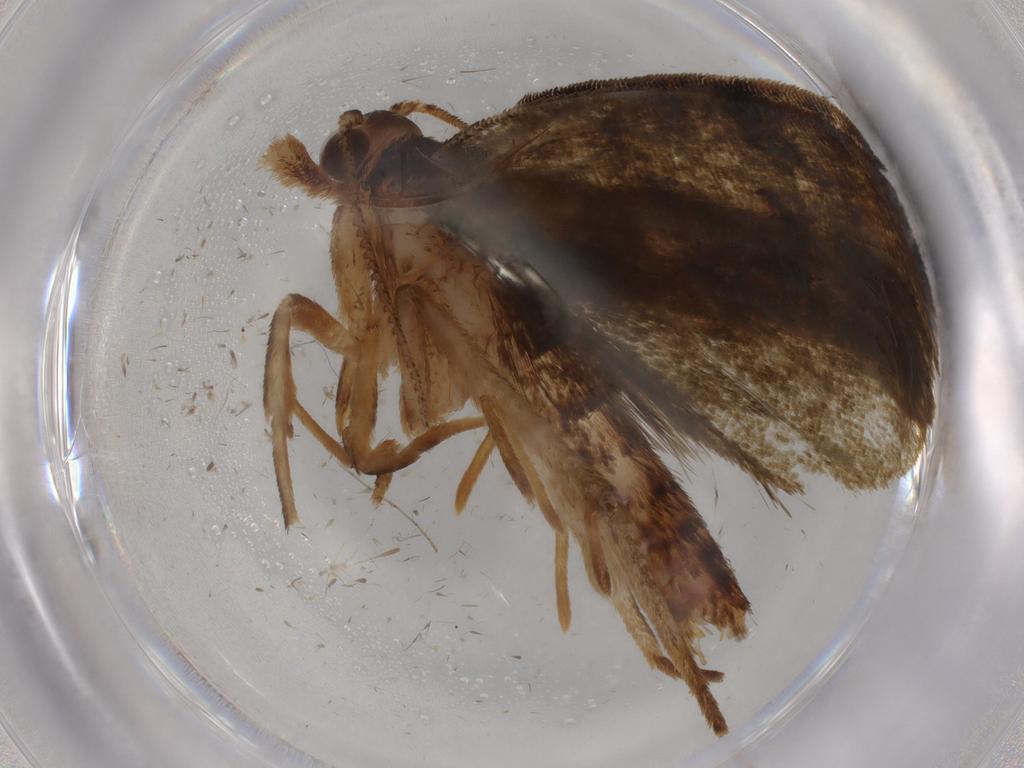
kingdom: Animalia
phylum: Arthropoda
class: Insecta
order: Lepidoptera
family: Geometridae
